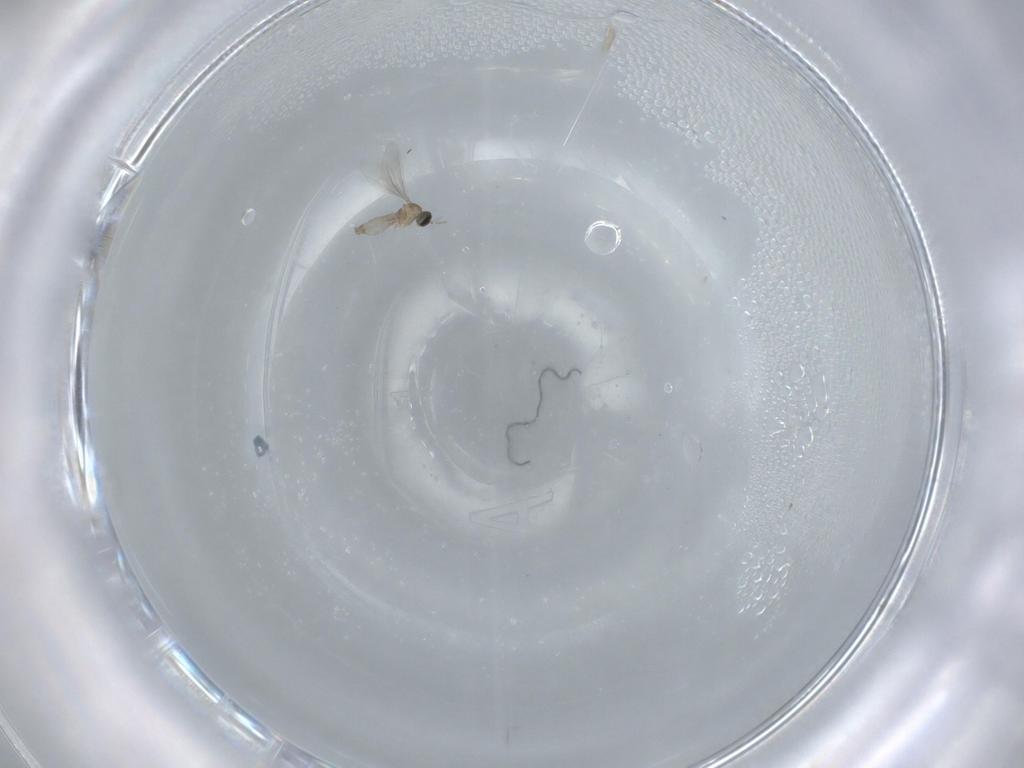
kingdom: Animalia
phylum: Arthropoda
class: Insecta
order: Diptera
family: Cecidomyiidae
